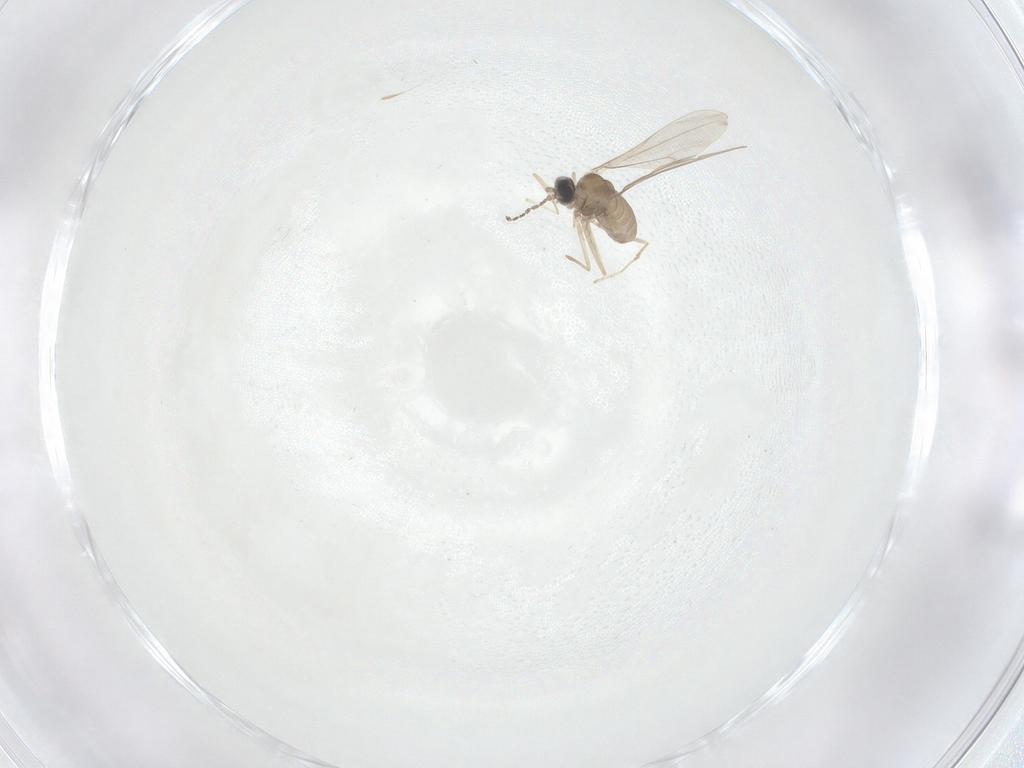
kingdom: Animalia
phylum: Arthropoda
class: Insecta
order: Diptera
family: Cecidomyiidae
